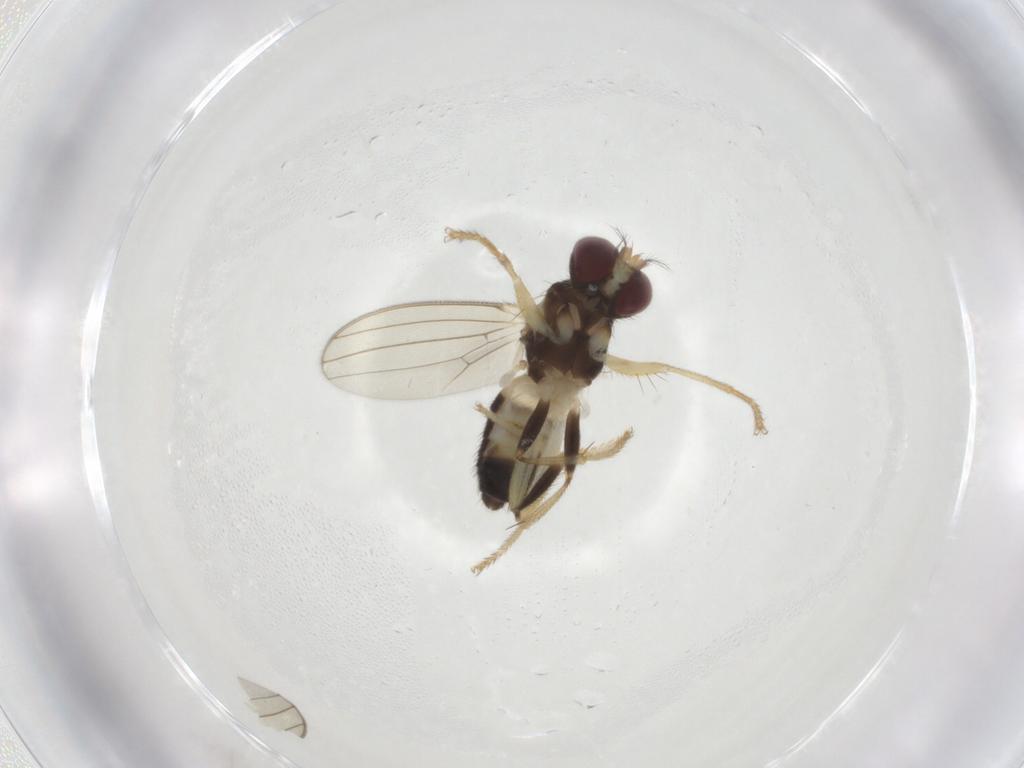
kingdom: Animalia
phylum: Arthropoda
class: Insecta
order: Diptera
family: Periscelididae
